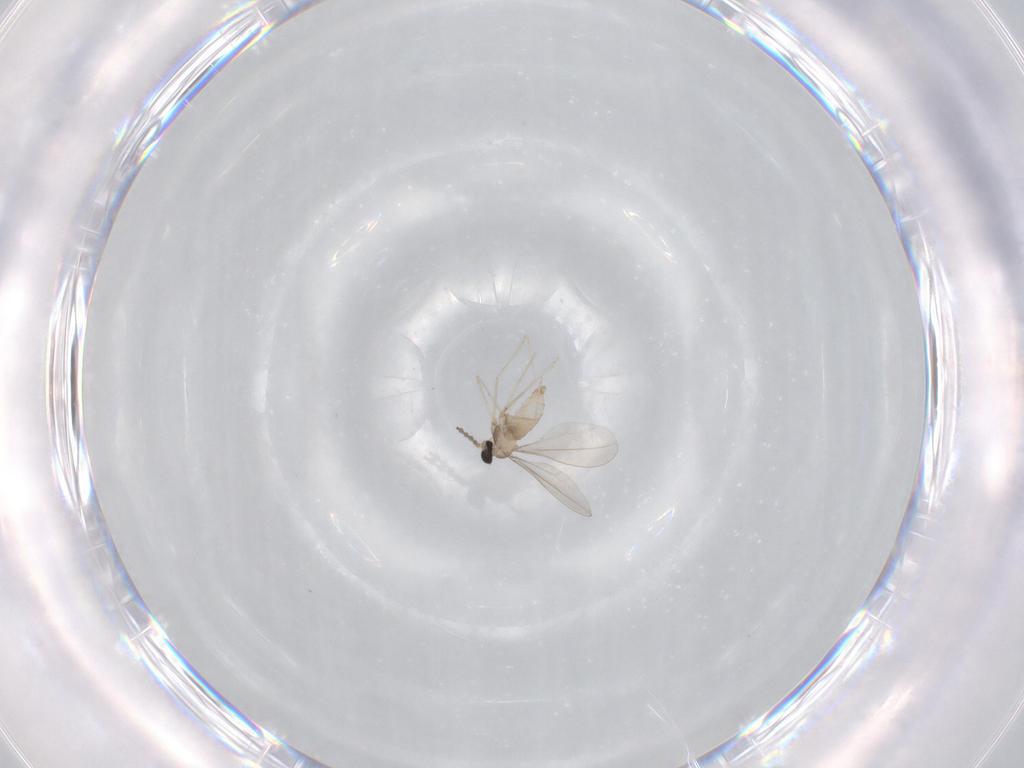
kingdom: Animalia
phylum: Arthropoda
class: Insecta
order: Diptera
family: Psychodidae
